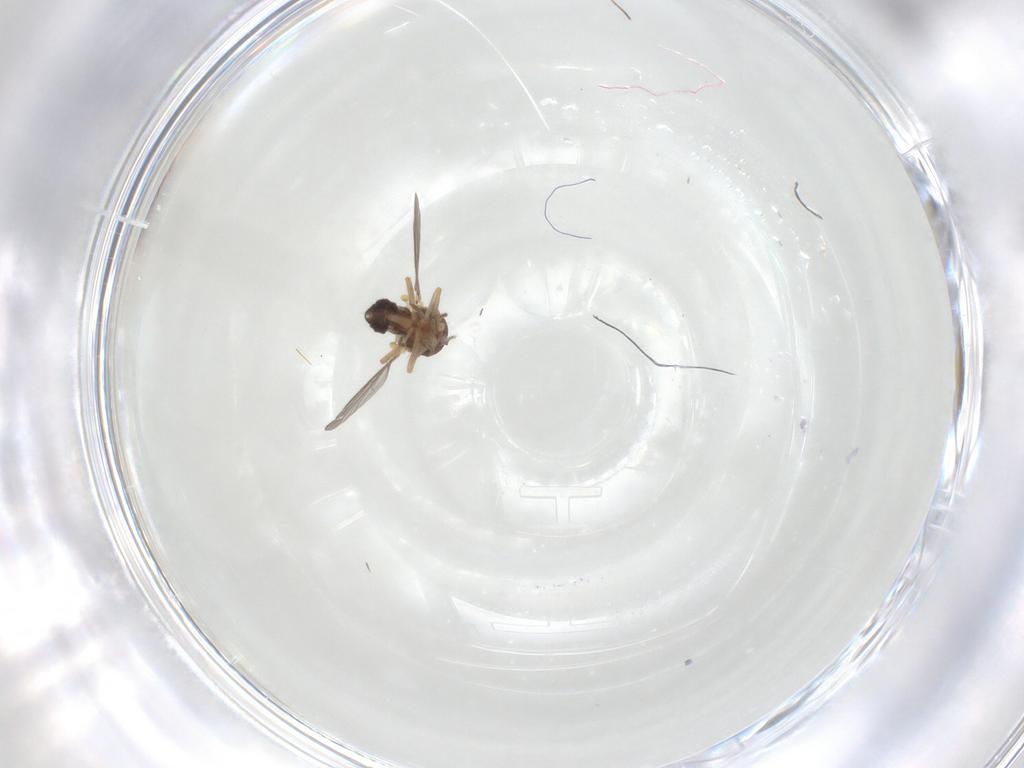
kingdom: Animalia
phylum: Arthropoda
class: Insecta
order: Diptera
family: Ceratopogonidae
